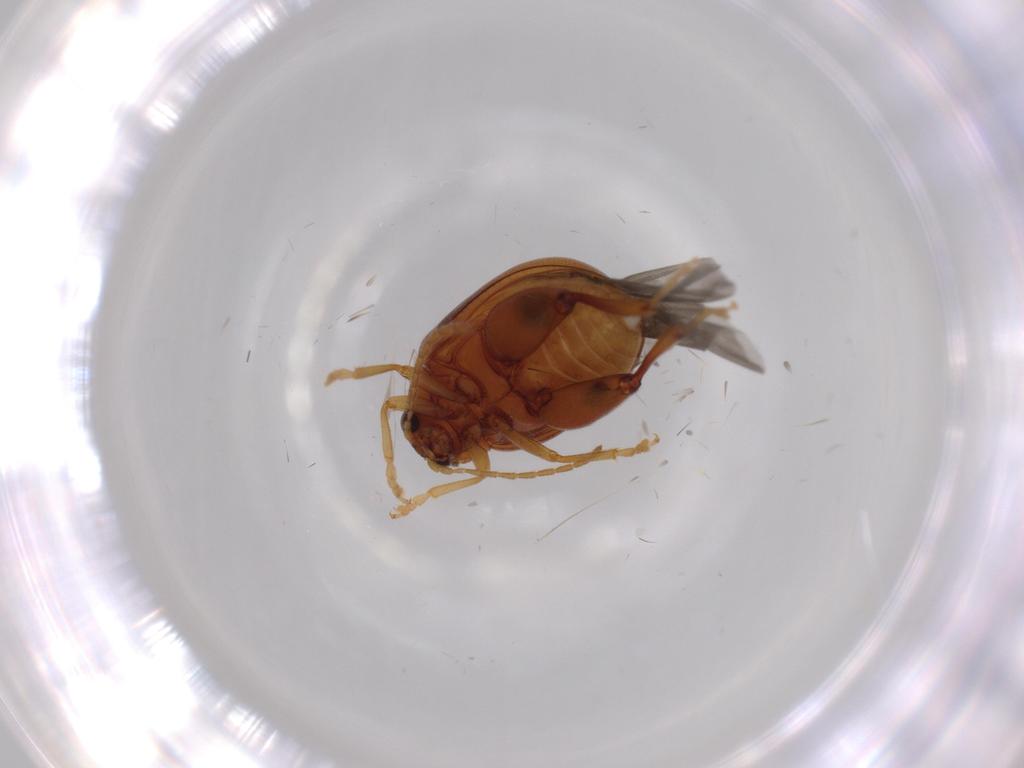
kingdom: Animalia
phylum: Arthropoda
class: Insecta
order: Coleoptera
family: Chrysomelidae
